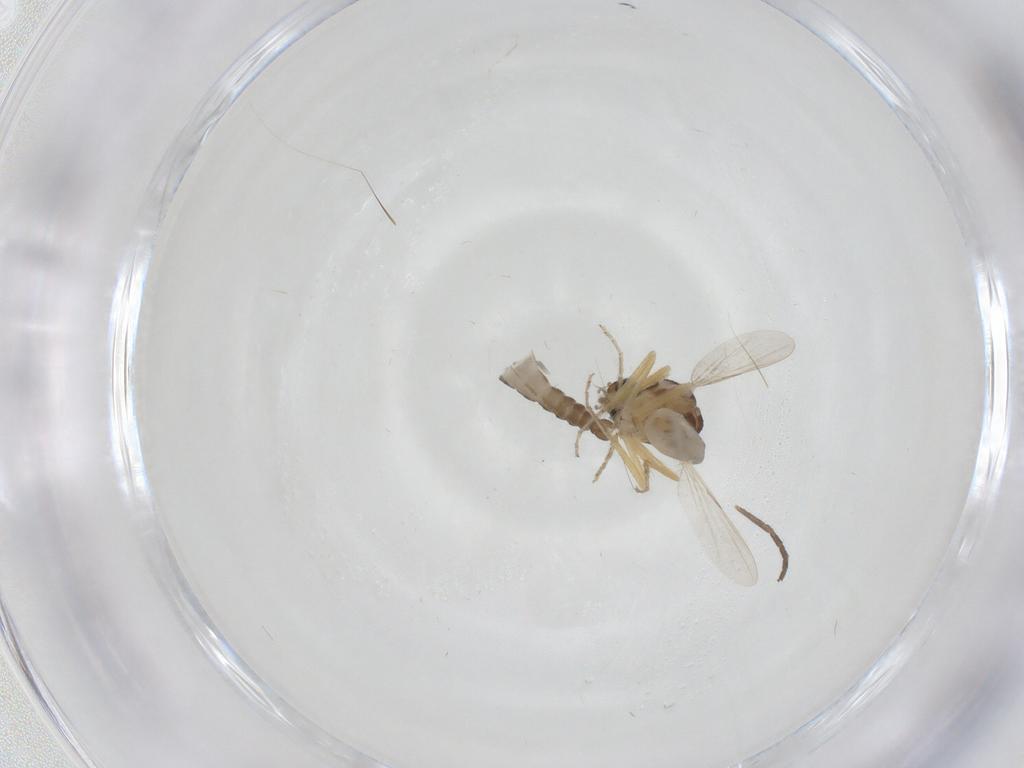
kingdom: Animalia
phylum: Arthropoda
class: Insecta
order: Diptera
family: Ceratopogonidae
